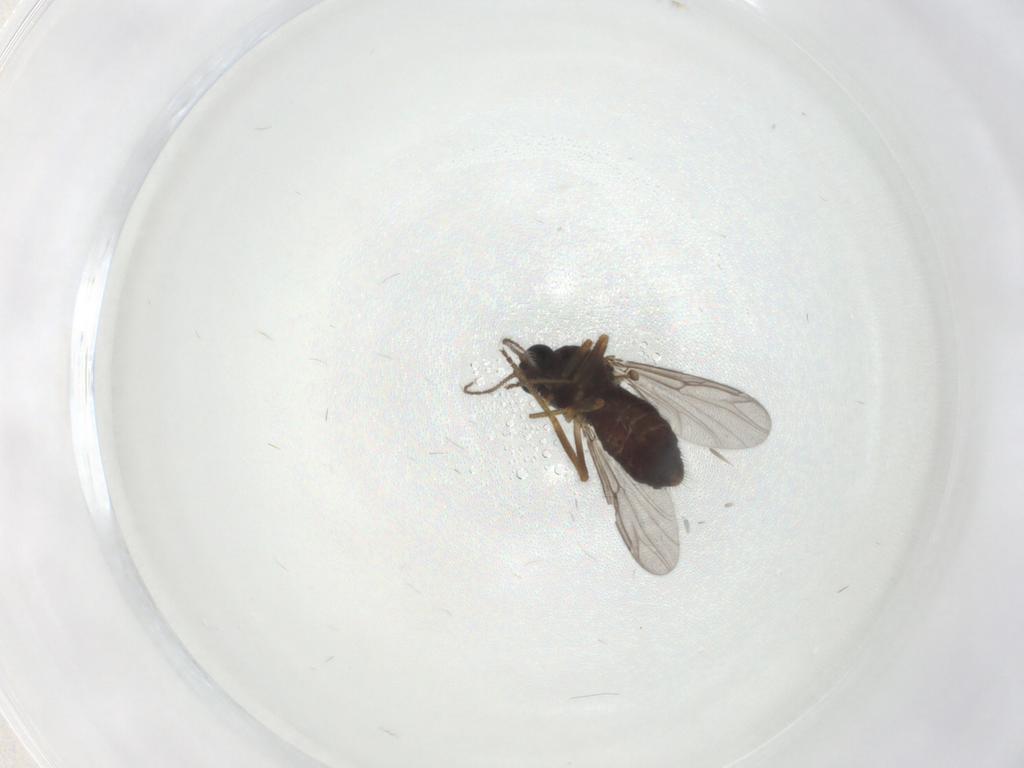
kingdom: Animalia
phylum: Arthropoda
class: Insecta
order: Diptera
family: Ceratopogonidae
